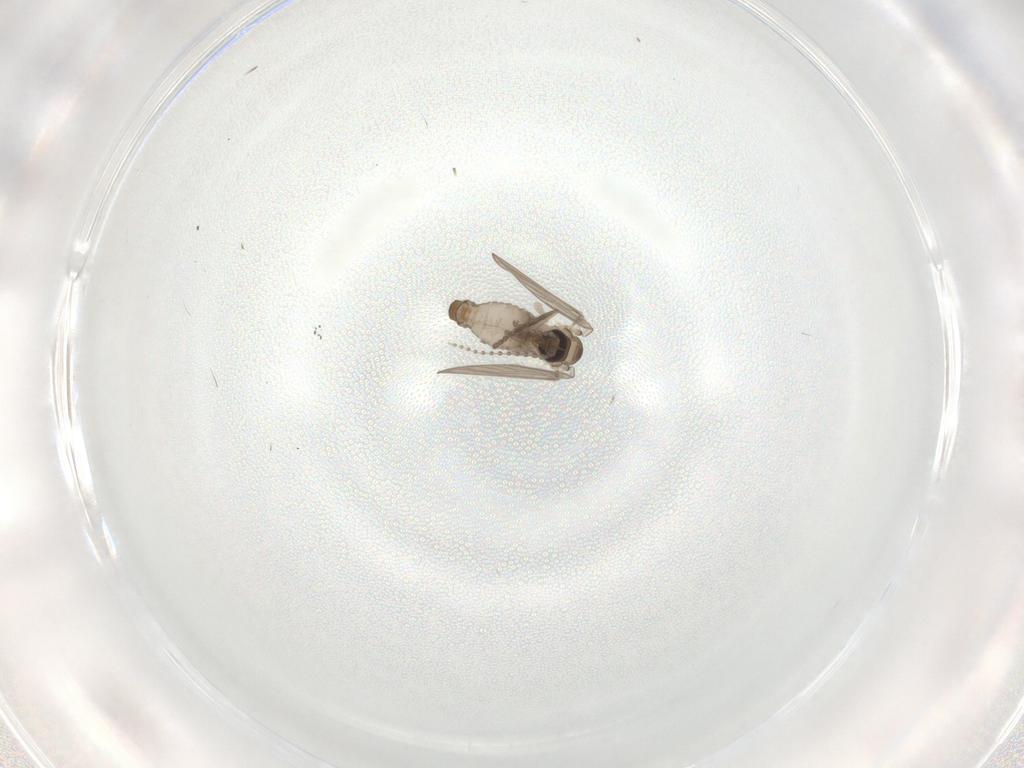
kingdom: Animalia
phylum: Arthropoda
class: Insecta
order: Diptera
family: Psychodidae
